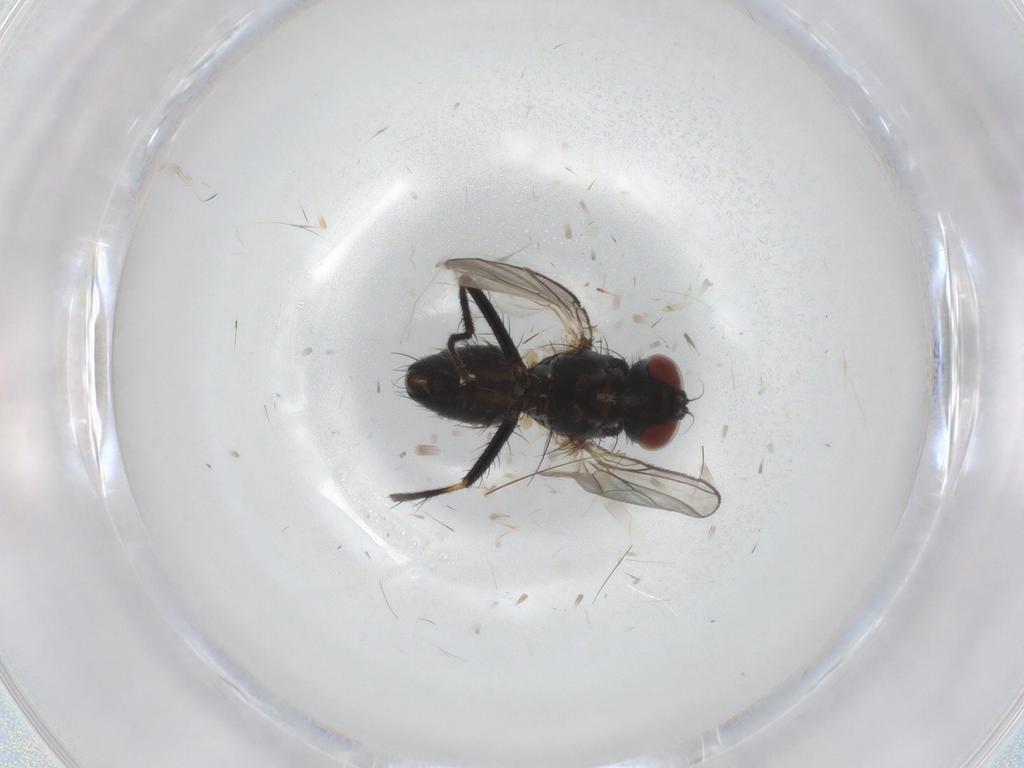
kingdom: Animalia
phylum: Arthropoda
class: Insecta
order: Diptera
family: Muscidae
